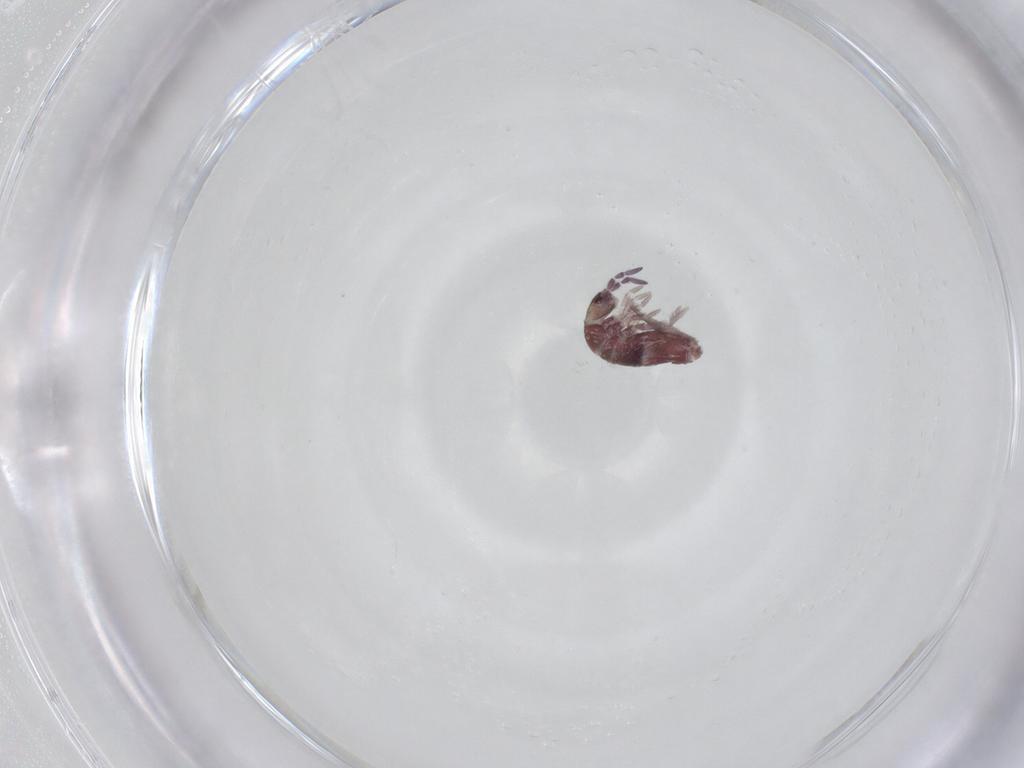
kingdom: Animalia
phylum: Arthropoda
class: Collembola
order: Entomobryomorpha
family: Entomobryidae
